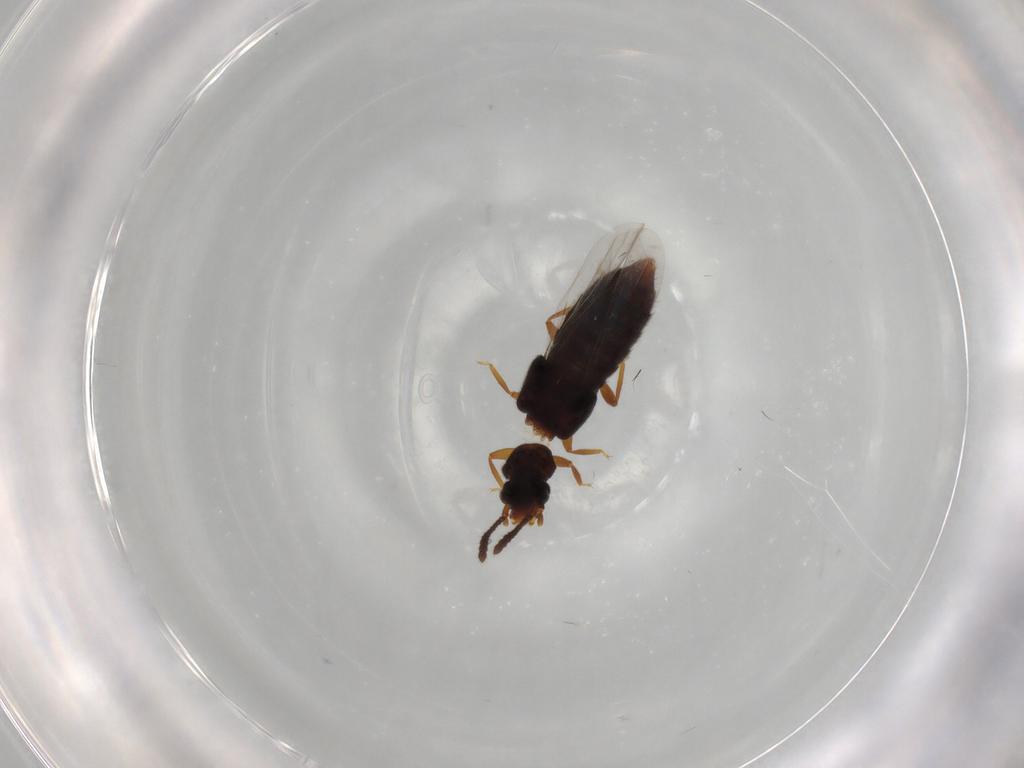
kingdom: Animalia
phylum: Arthropoda
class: Insecta
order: Coleoptera
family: Staphylinidae
